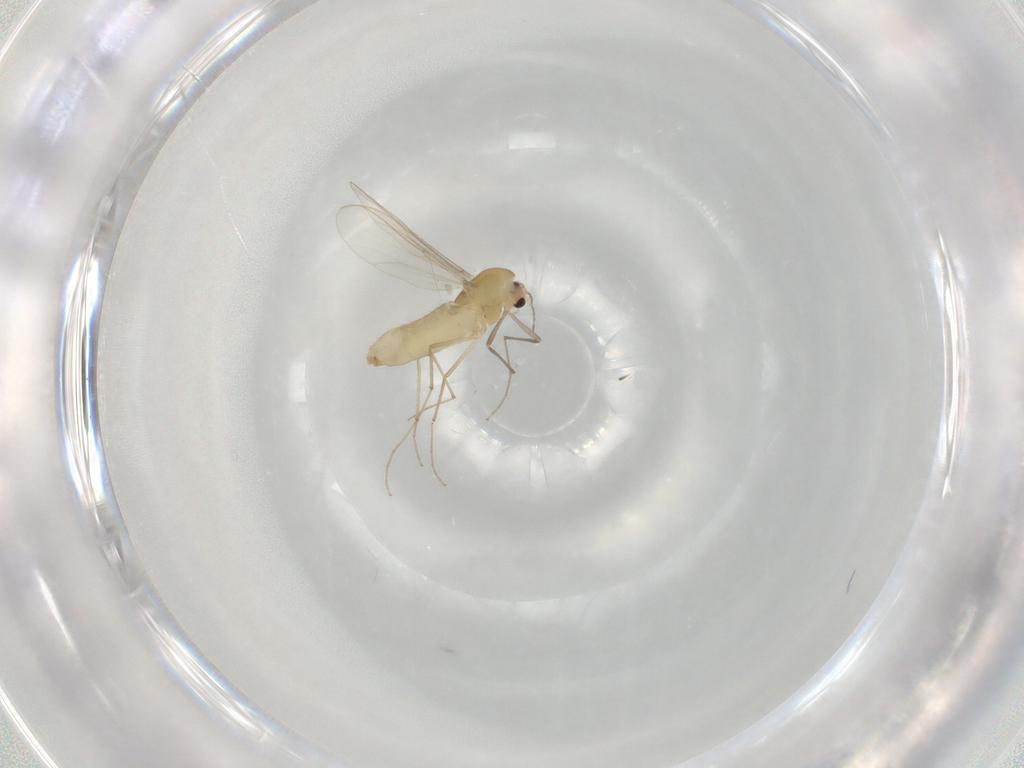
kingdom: Animalia
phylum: Arthropoda
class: Insecta
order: Diptera
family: Chironomidae
